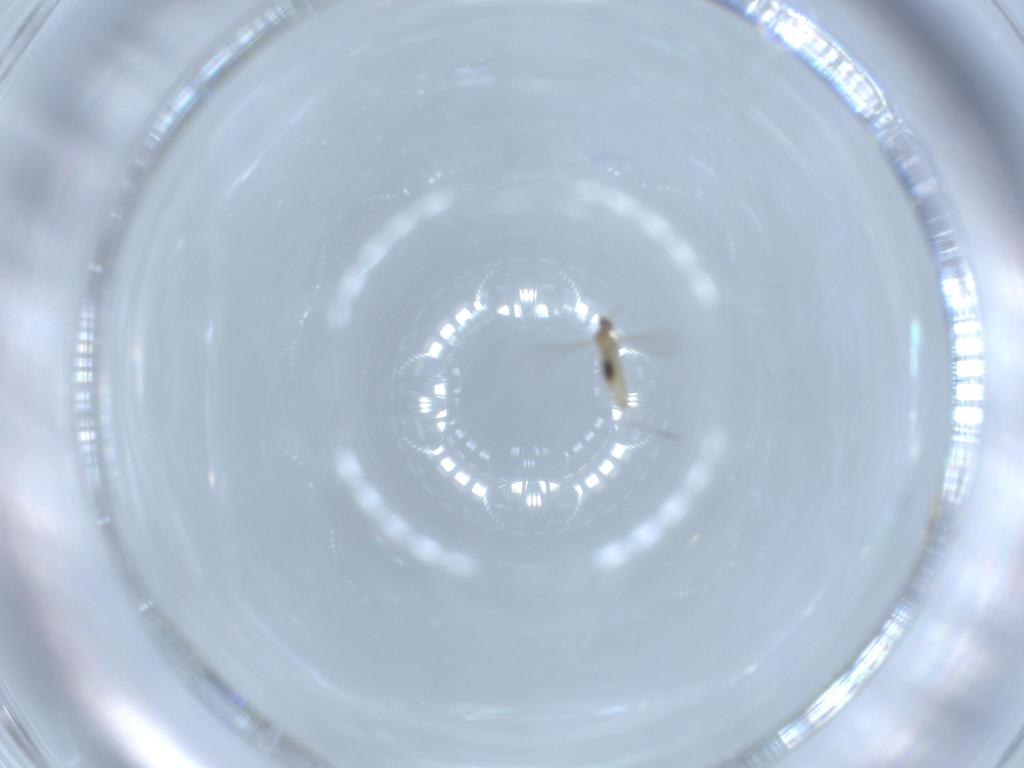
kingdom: Animalia
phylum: Arthropoda
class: Insecta
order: Diptera
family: Cecidomyiidae
